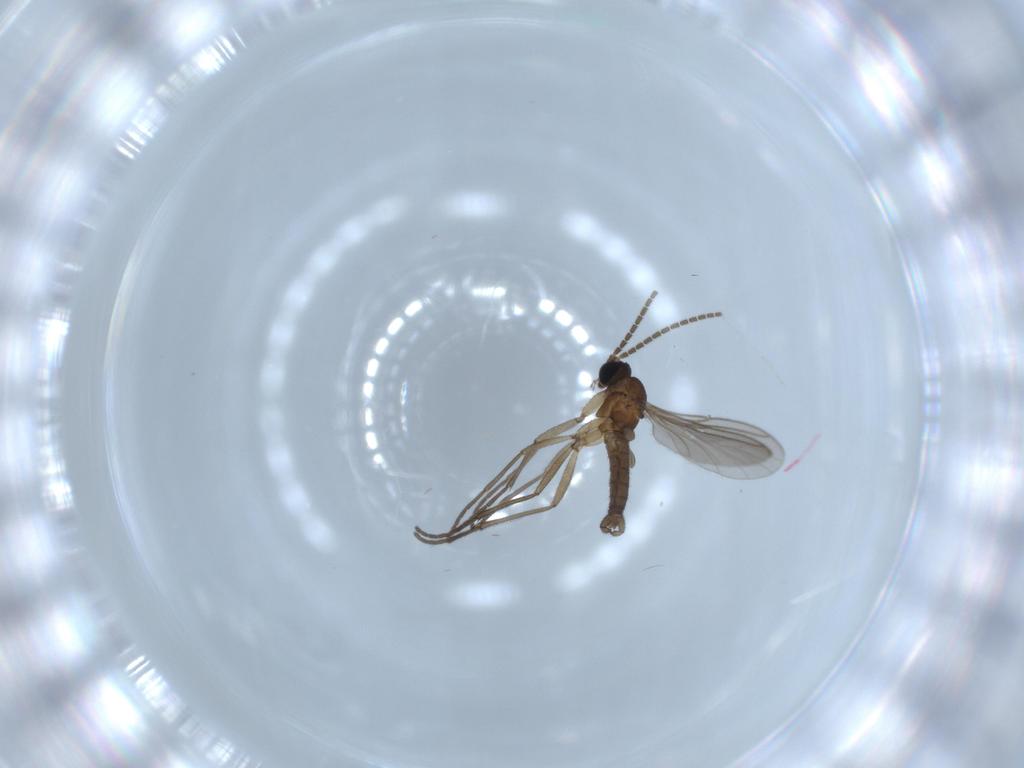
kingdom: Animalia
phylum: Arthropoda
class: Insecta
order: Diptera
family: Sciaridae
